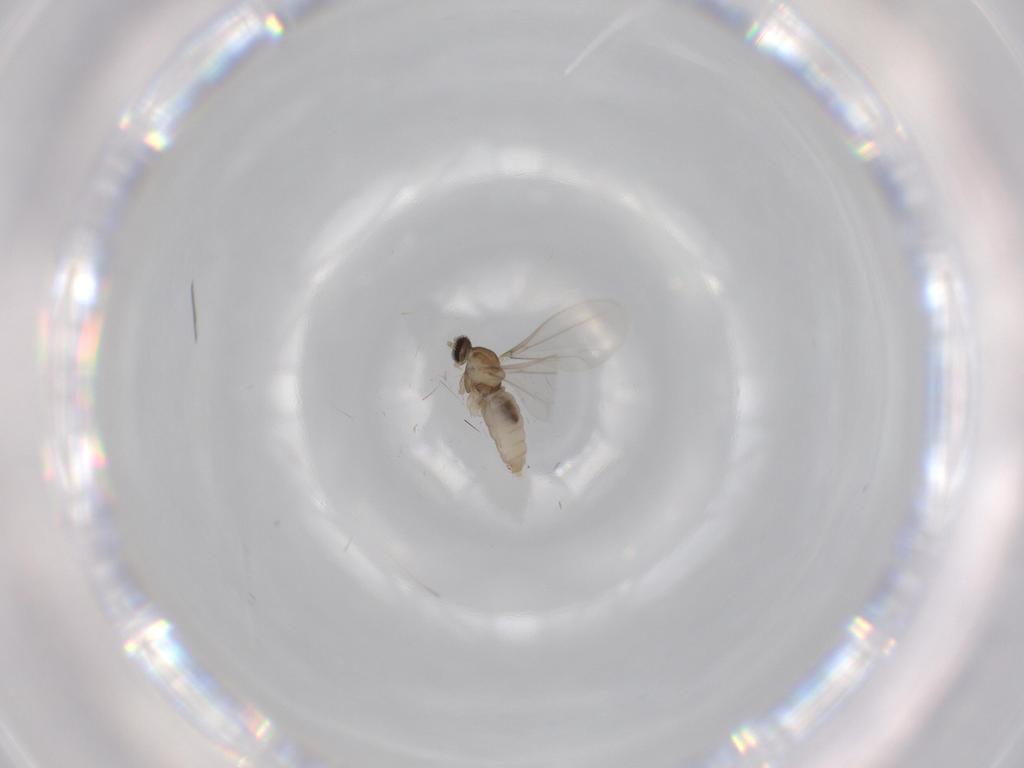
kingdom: Animalia
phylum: Arthropoda
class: Insecta
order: Diptera
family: Cecidomyiidae
